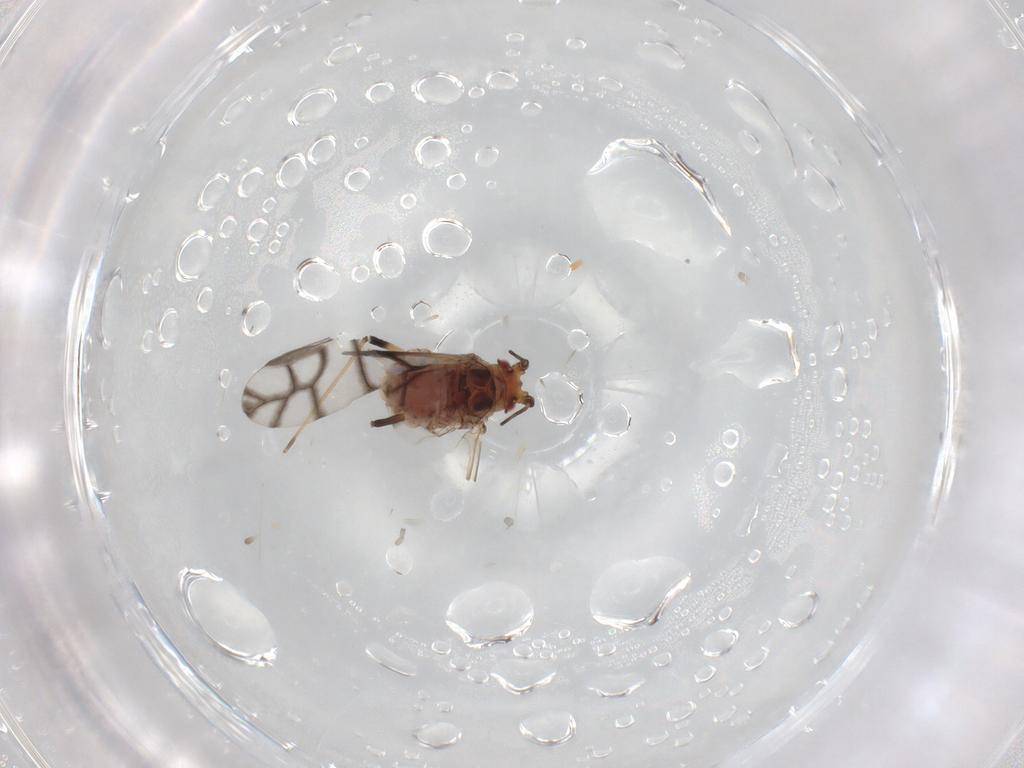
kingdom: Animalia
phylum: Arthropoda
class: Insecta
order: Hemiptera
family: Aphididae
